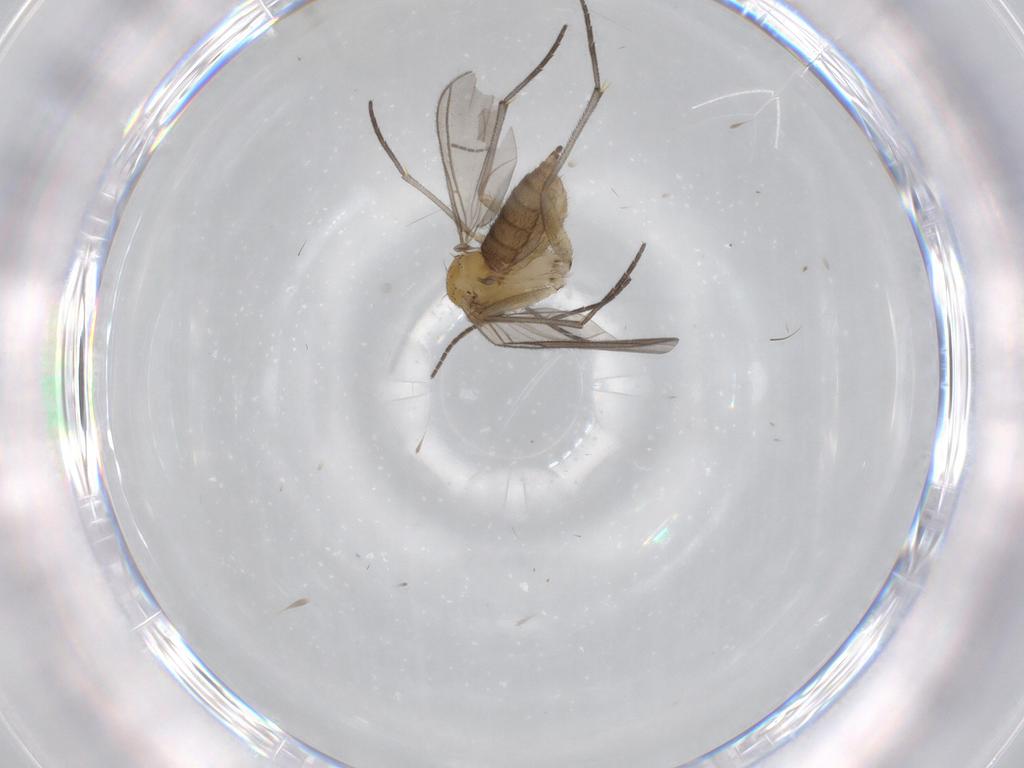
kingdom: Animalia
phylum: Arthropoda
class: Insecta
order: Diptera
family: Sciaridae
